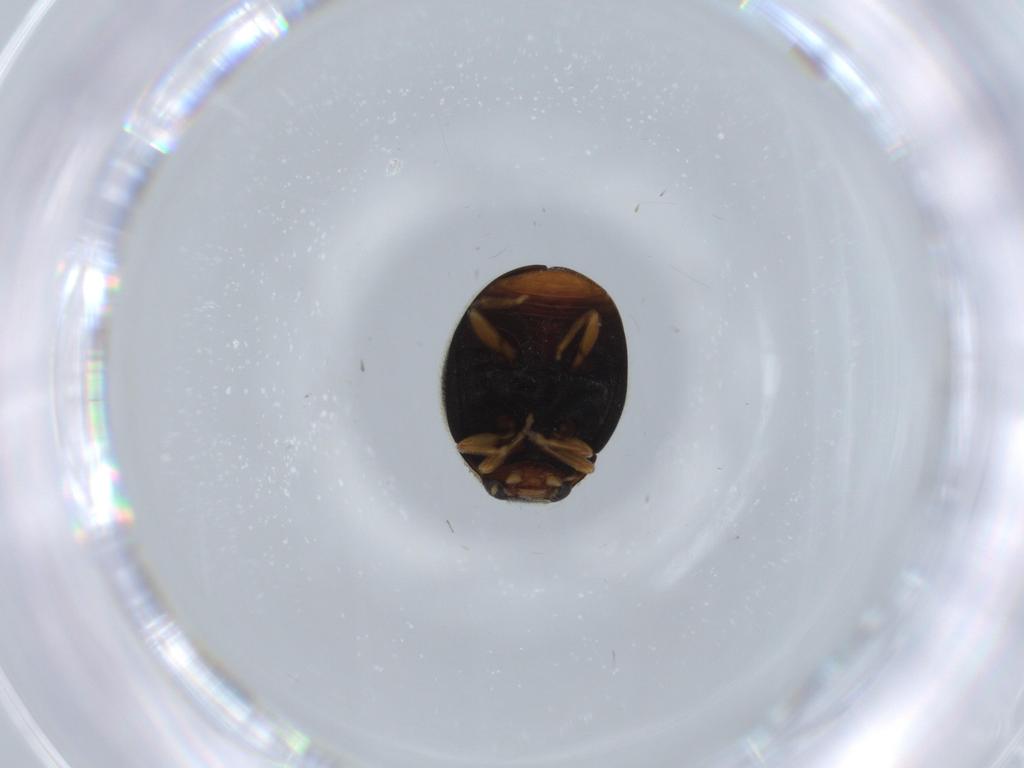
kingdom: Animalia
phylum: Arthropoda
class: Insecta
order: Coleoptera
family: Coccinellidae
